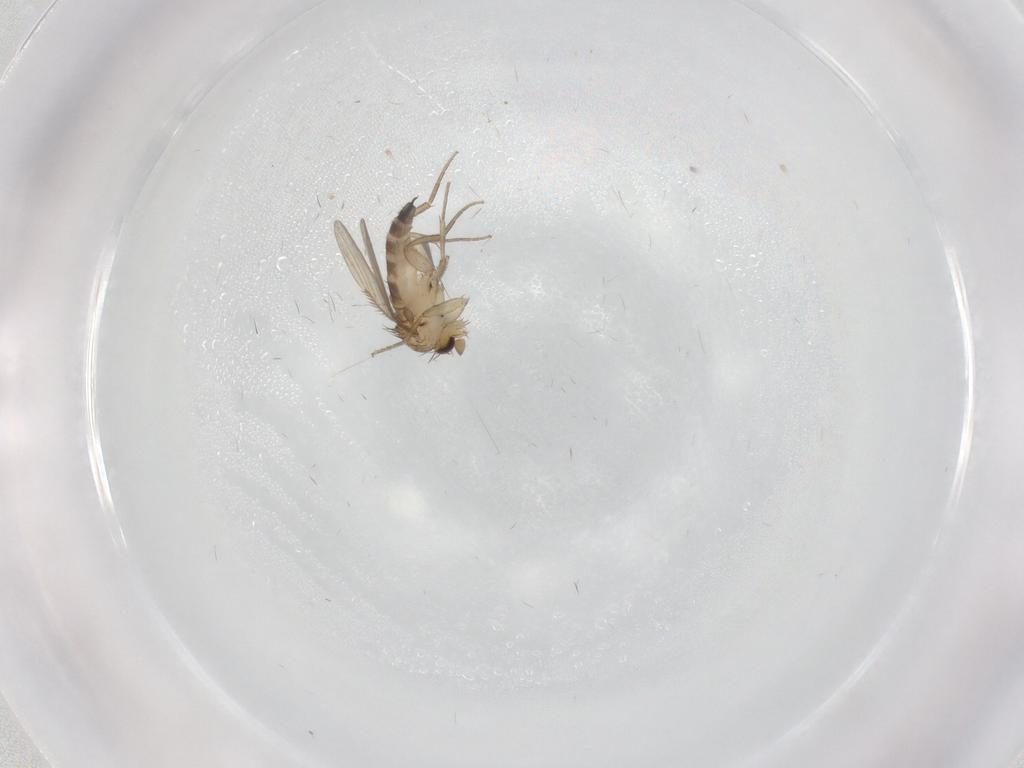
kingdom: Animalia
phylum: Arthropoda
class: Insecta
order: Diptera
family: Phoridae
